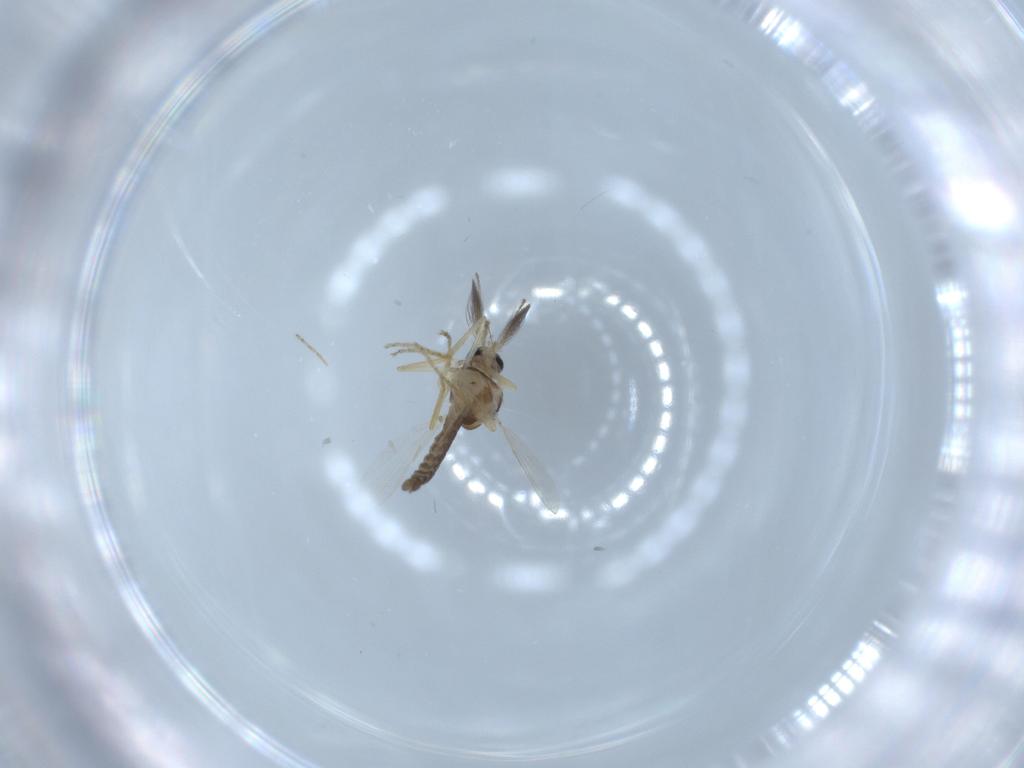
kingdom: Animalia
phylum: Arthropoda
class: Insecta
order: Diptera
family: Ceratopogonidae
